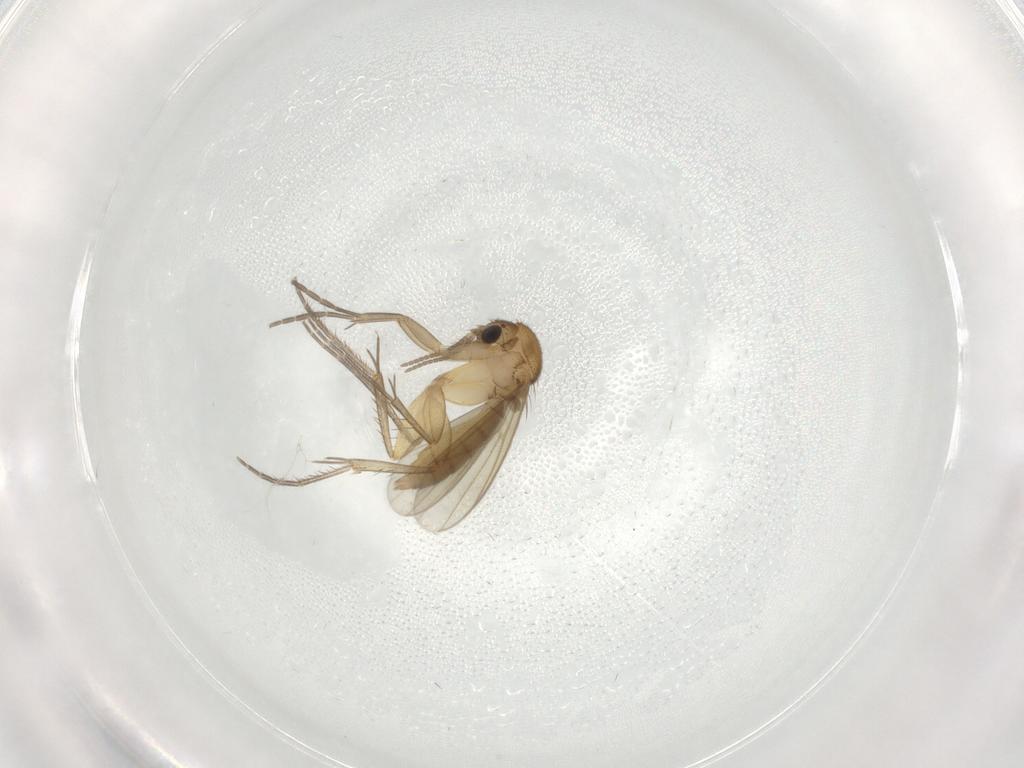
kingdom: Animalia
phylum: Arthropoda
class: Insecta
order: Diptera
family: Mycetophilidae
